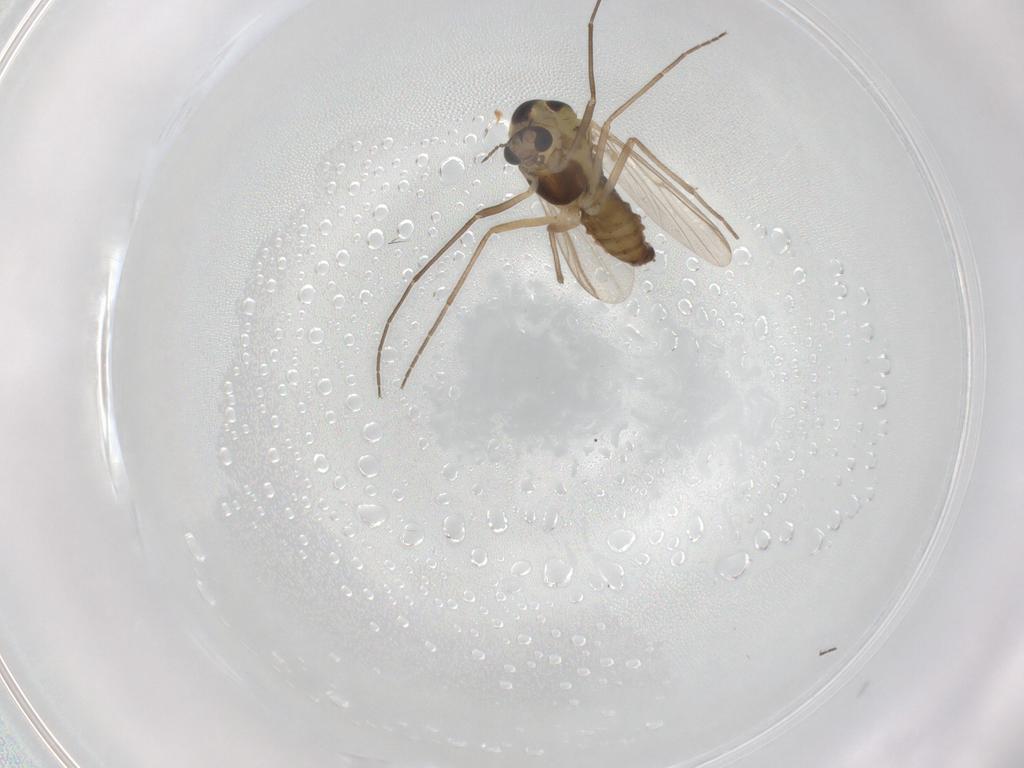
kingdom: Animalia
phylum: Arthropoda
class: Insecta
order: Diptera
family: Chironomidae
